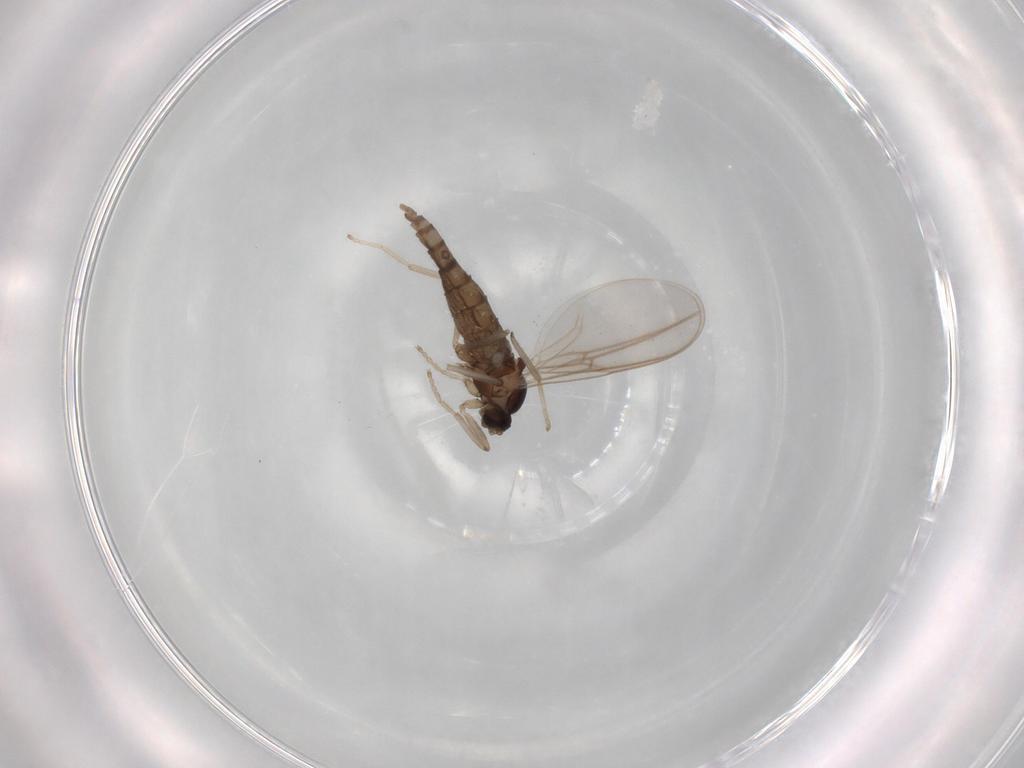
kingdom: Animalia
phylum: Arthropoda
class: Insecta
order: Diptera
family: Cecidomyiidae
